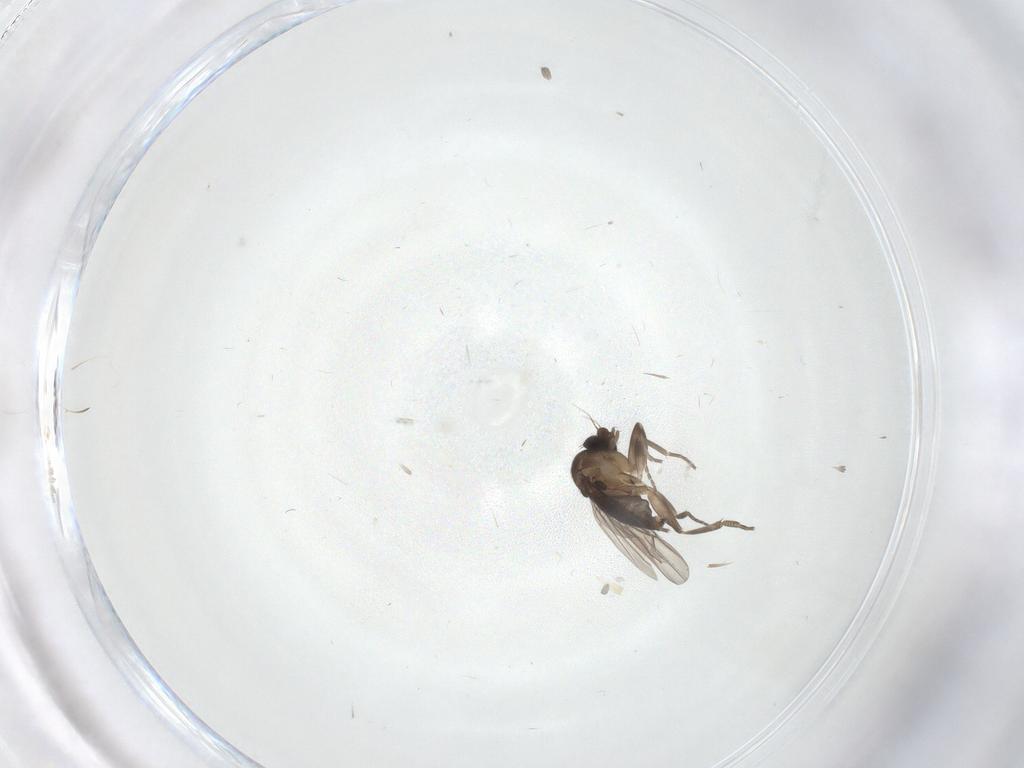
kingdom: Animalia
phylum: Arthropoda
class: Insecta
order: Diptera
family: Phoridae
